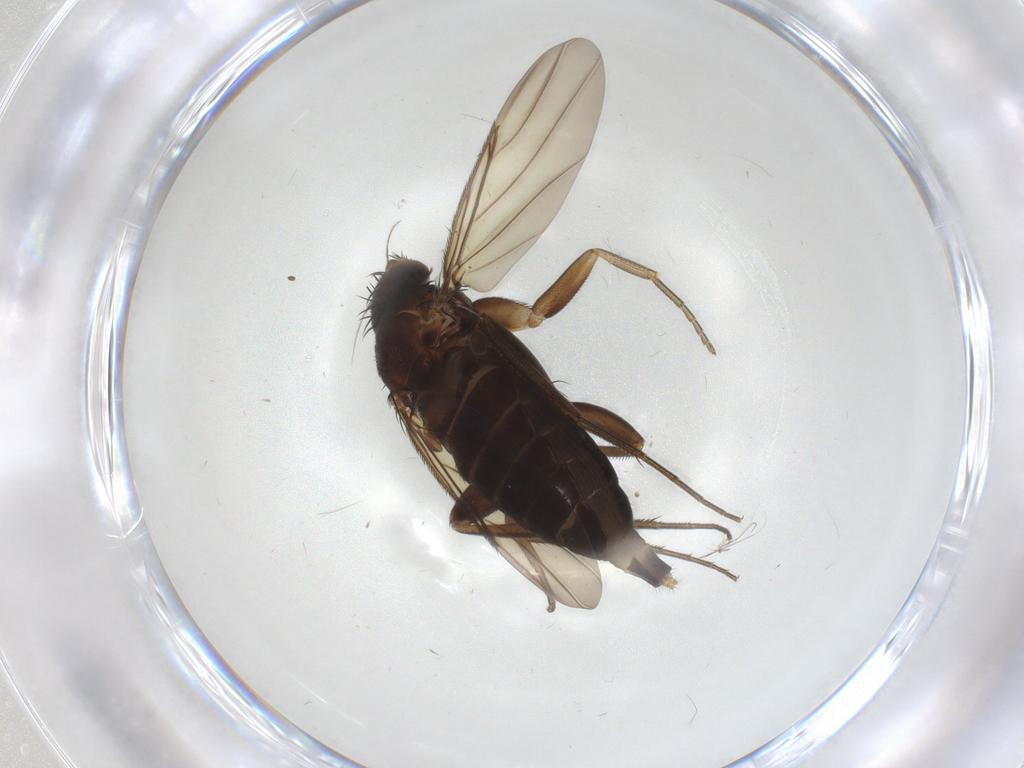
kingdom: Animalia
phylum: Arthropoda
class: Insecta
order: Diptera
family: Phoridae
